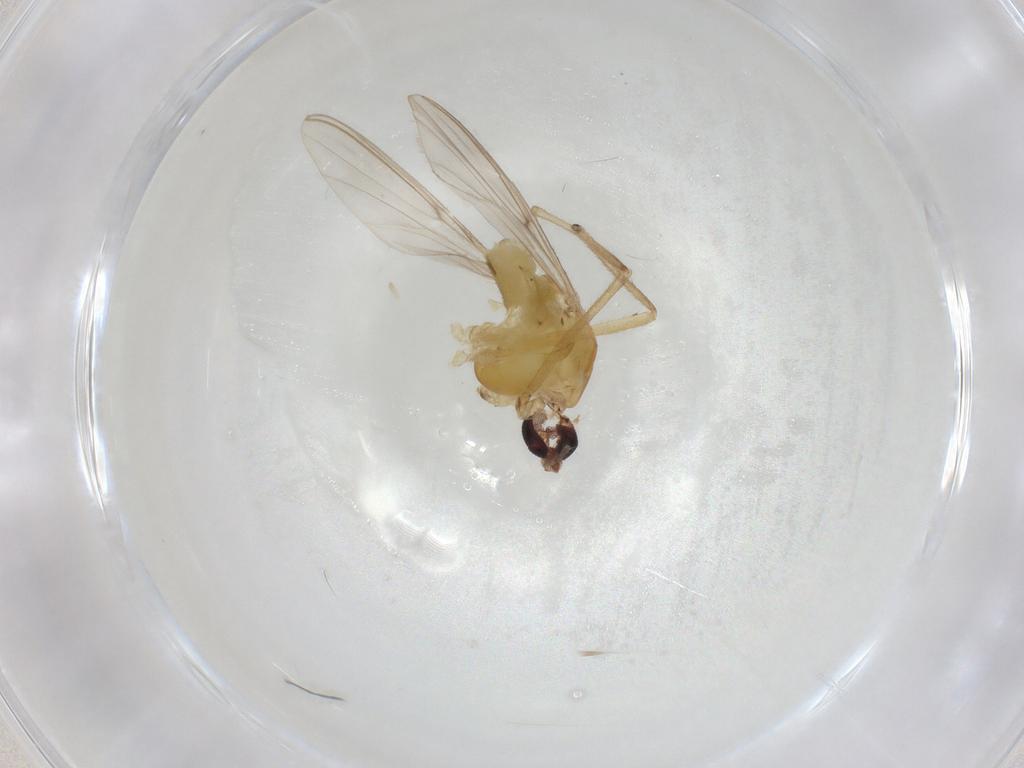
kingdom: Animalia
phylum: Arthropoda
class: Insecta
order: Diptera
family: Chironomidae
